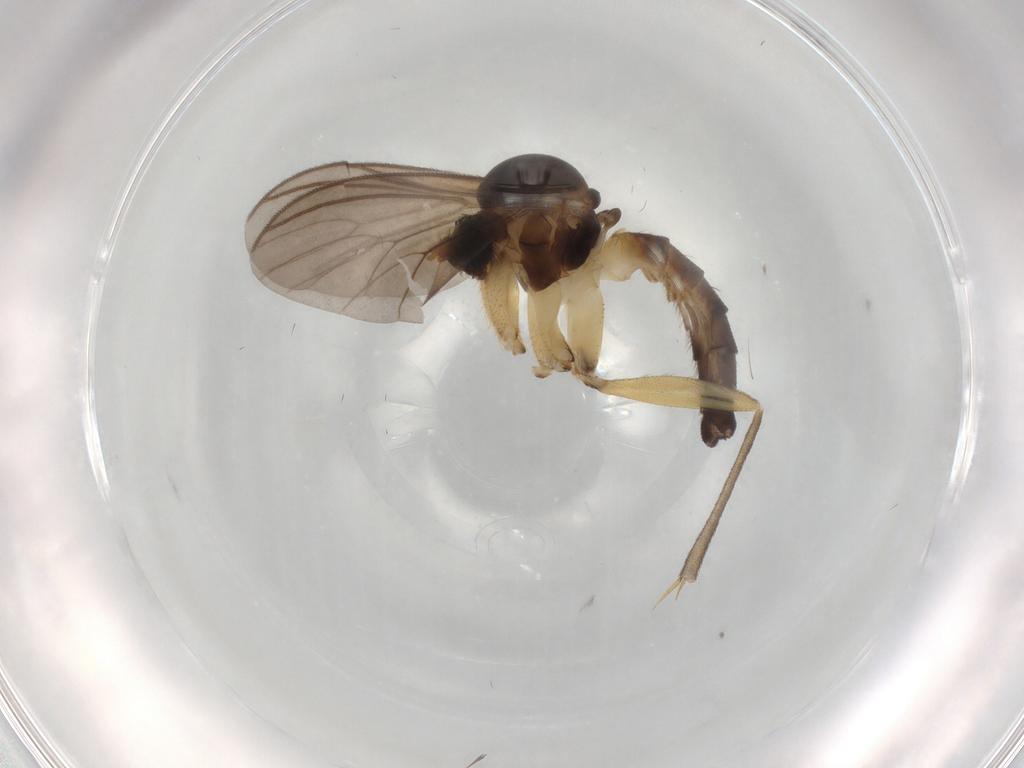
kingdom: Animalia
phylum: Arthropoda
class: Insecta
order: Diptera
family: Mycetophilidae
